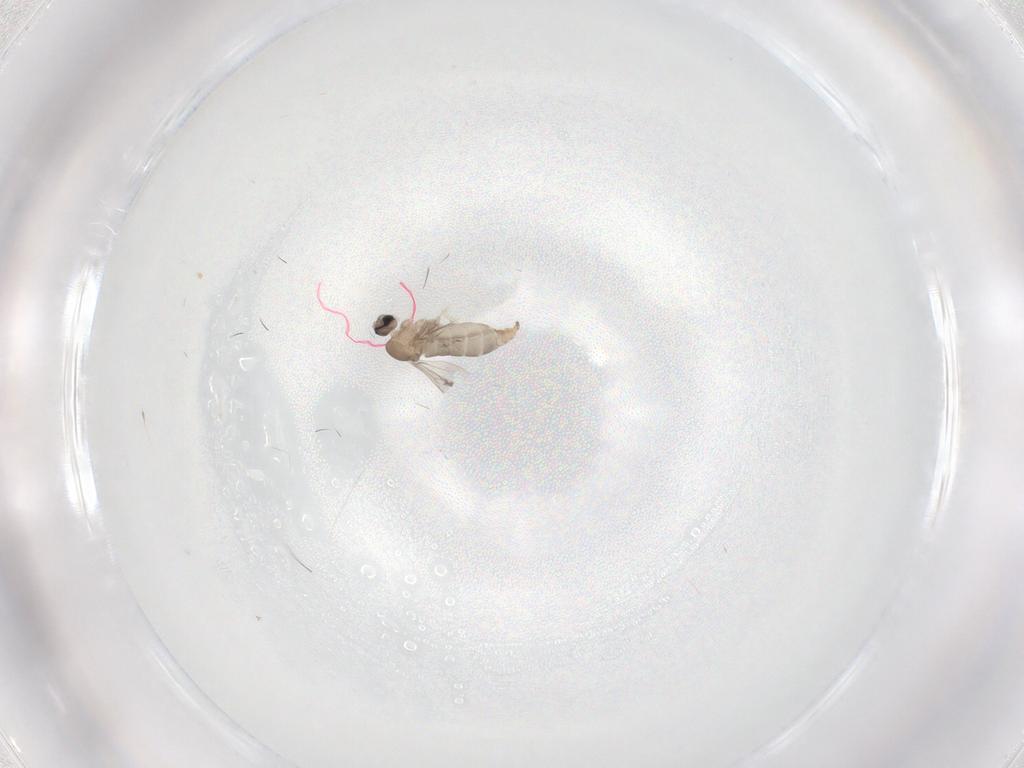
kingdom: Animalia
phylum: Arthropoda
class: Insecta
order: Diptera
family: Cecidomyiidae
